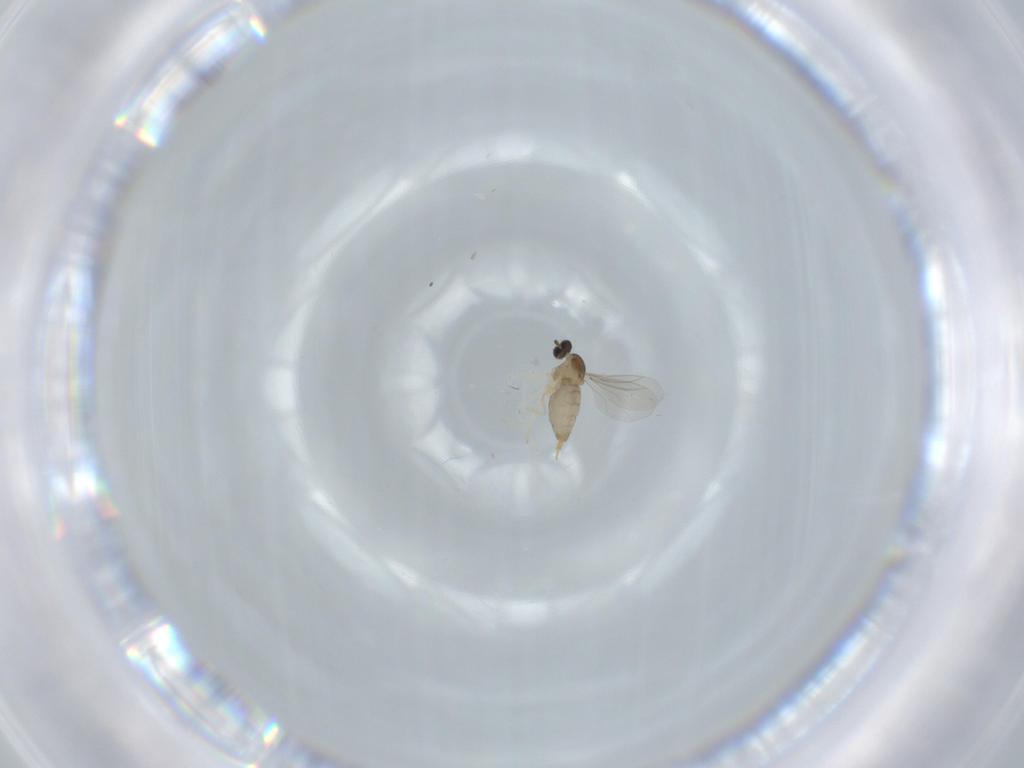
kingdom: Animalia
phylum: Arthropoda
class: Insecta
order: Diptera
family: Cecidomyiidae
